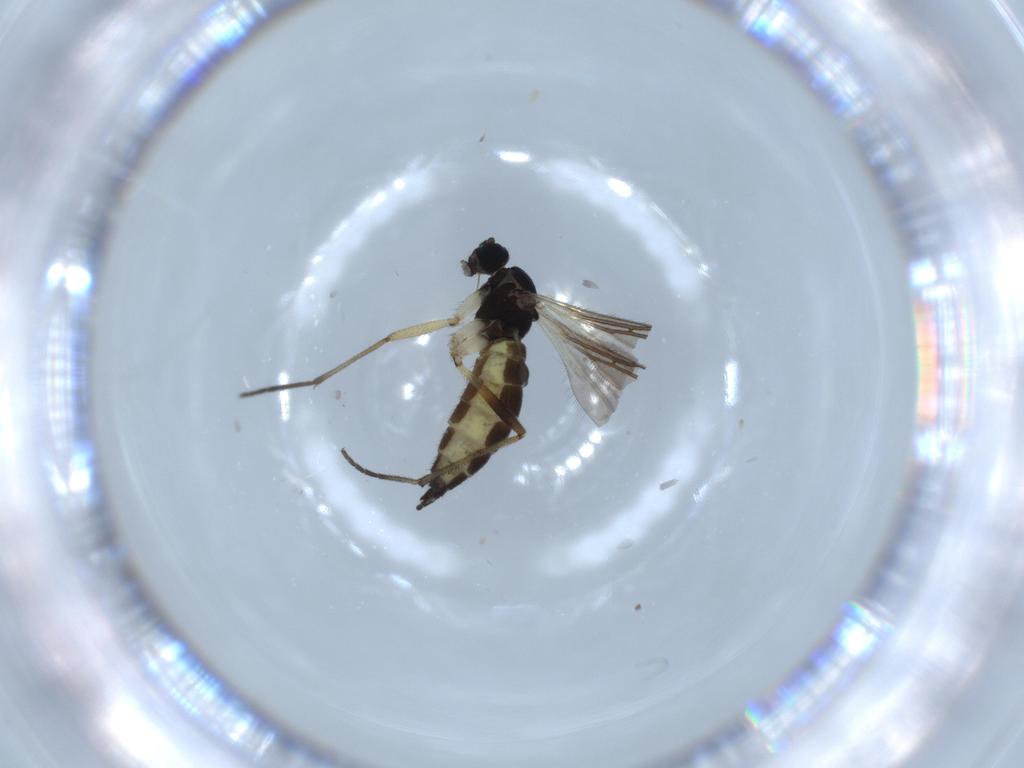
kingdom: Animalia
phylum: Arthropoda
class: Insecta
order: Diptera
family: Sciaridae
